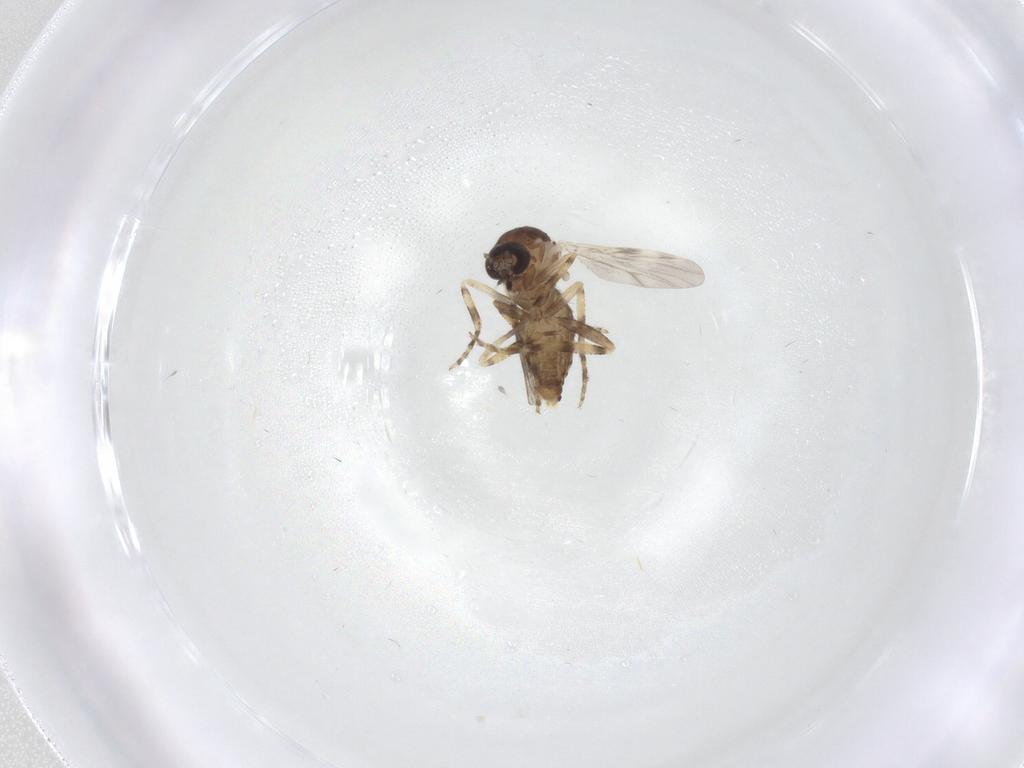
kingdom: Animalia
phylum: Arthropoda
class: Insecta
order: Diptera
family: Ceratopogonidae
